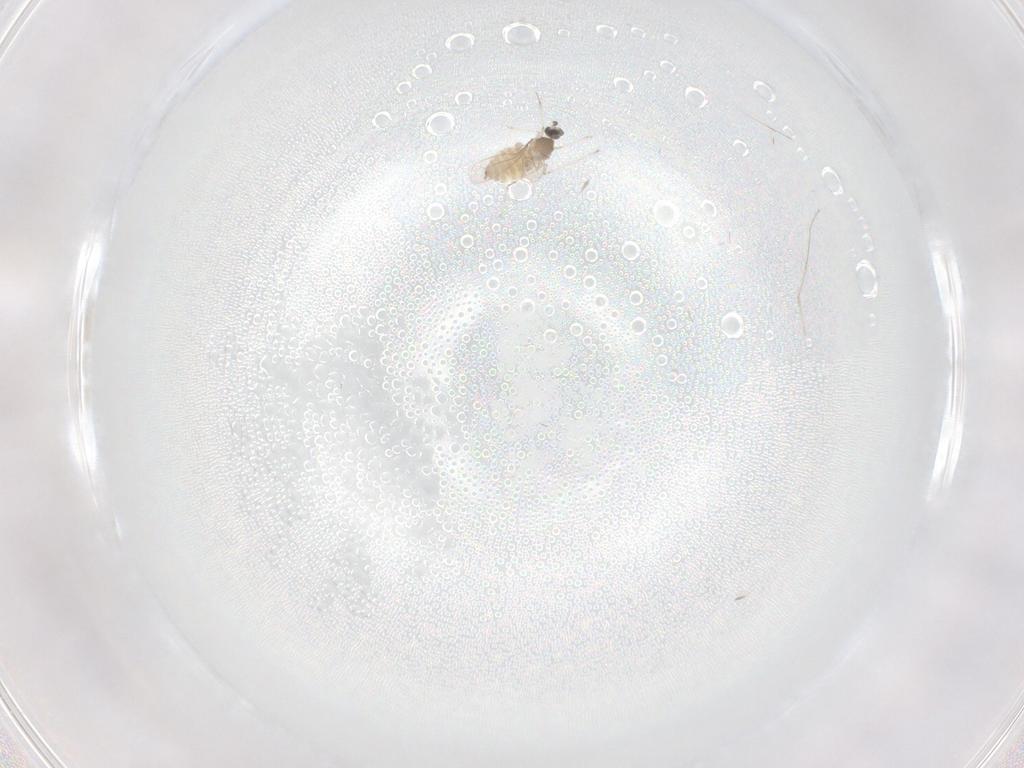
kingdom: Animalia
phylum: Arthropoda
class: Insecta
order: Diptera
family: Cecidomyiidae
